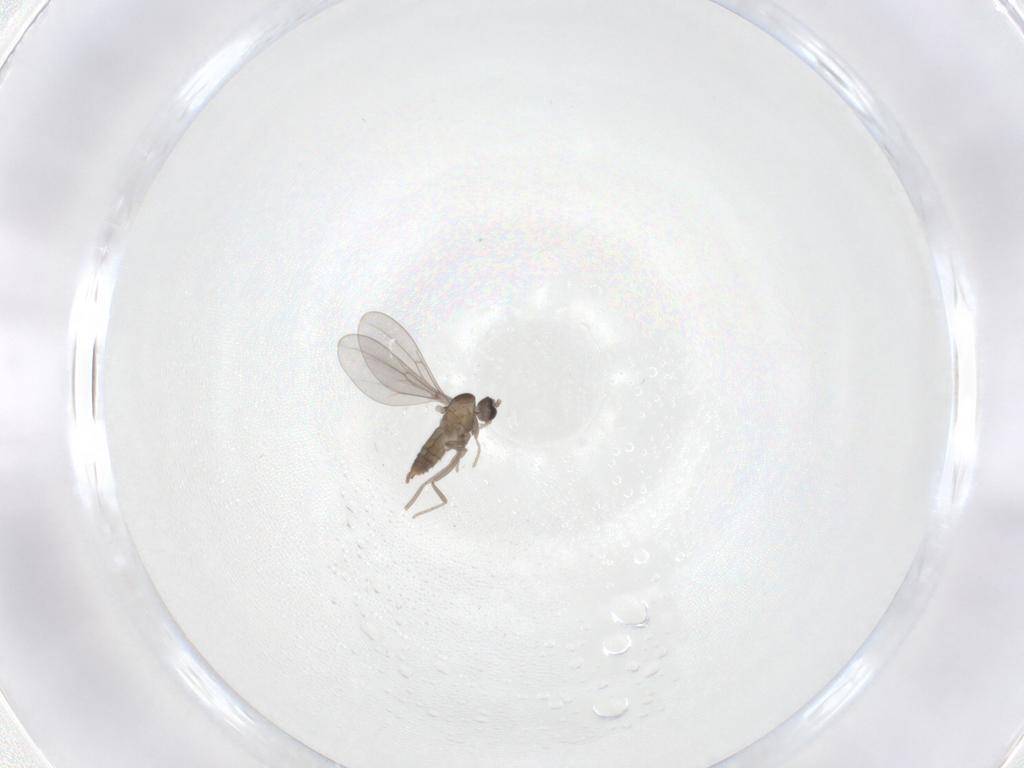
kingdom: Animalia
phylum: Arthropoda
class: Insecta
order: Diptera
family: Cecidomyiidae
